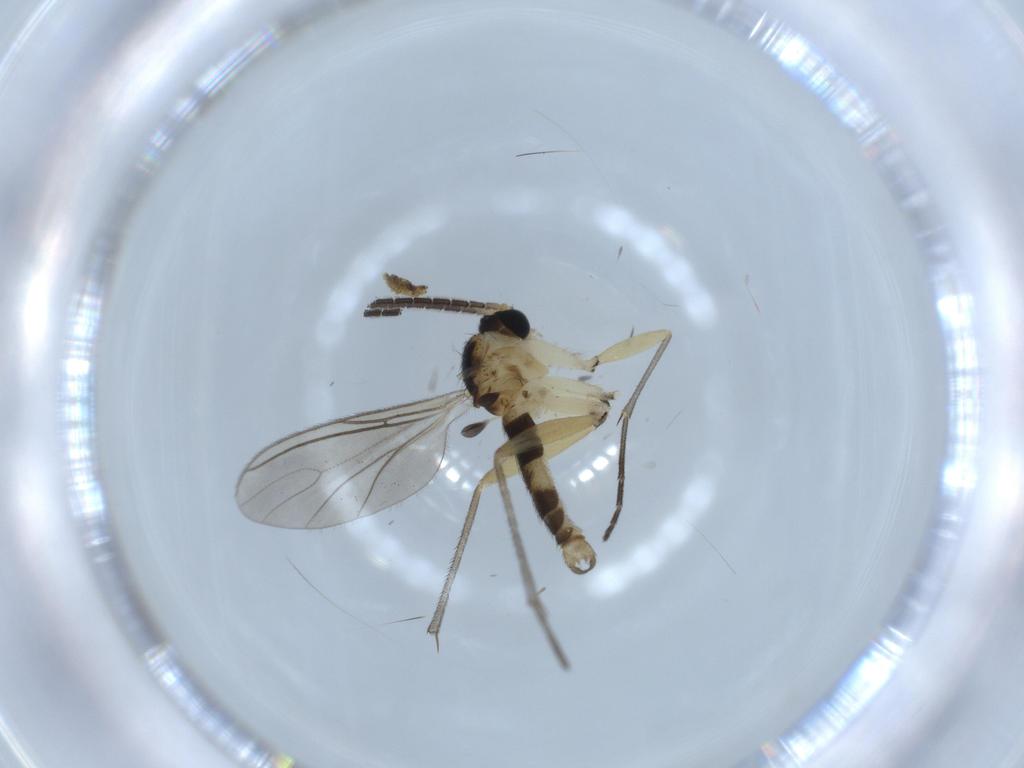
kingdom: Animalia
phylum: Arthropoda
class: Insecta
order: Diptera
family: Sciaridae
